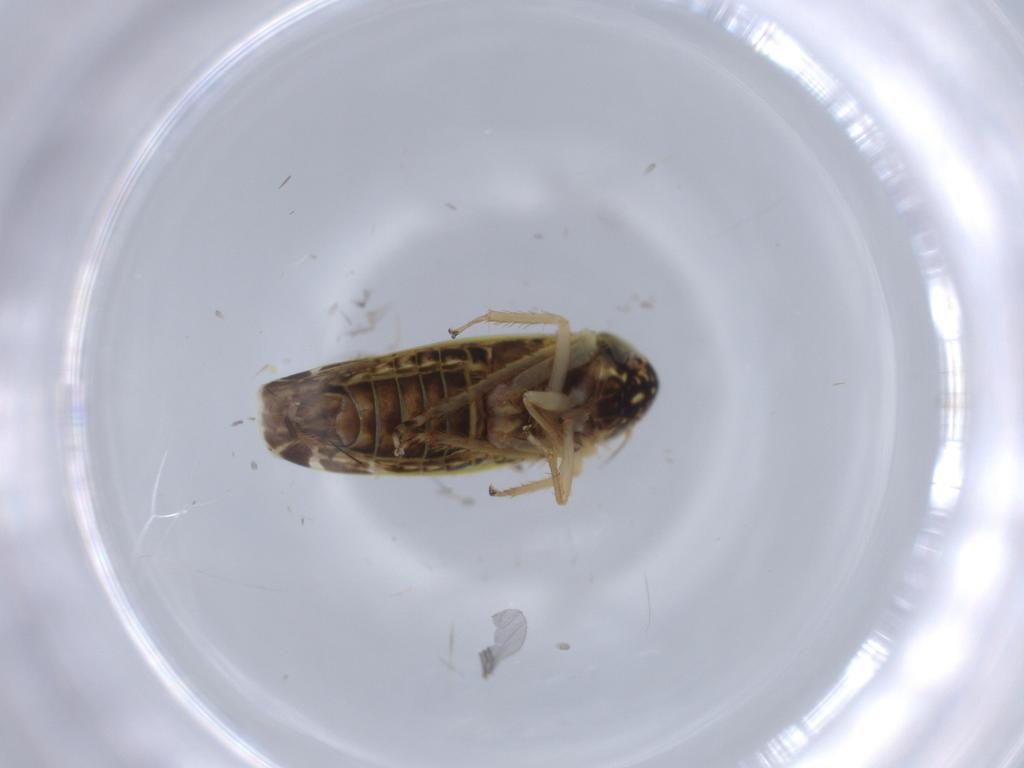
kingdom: Animalia
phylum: Arthropoda
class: Insecta
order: Hemiptera
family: Cicadellidae
